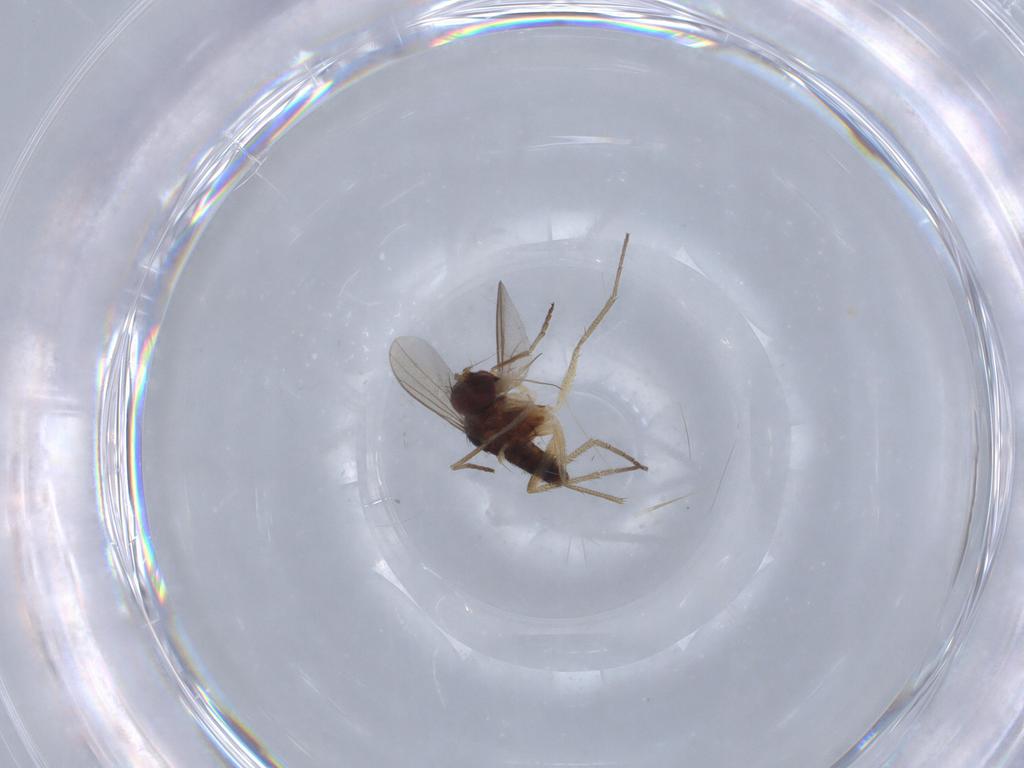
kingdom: Animalia
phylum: Arthropoda
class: Insecta
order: Diptera
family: Dolichopodidae
